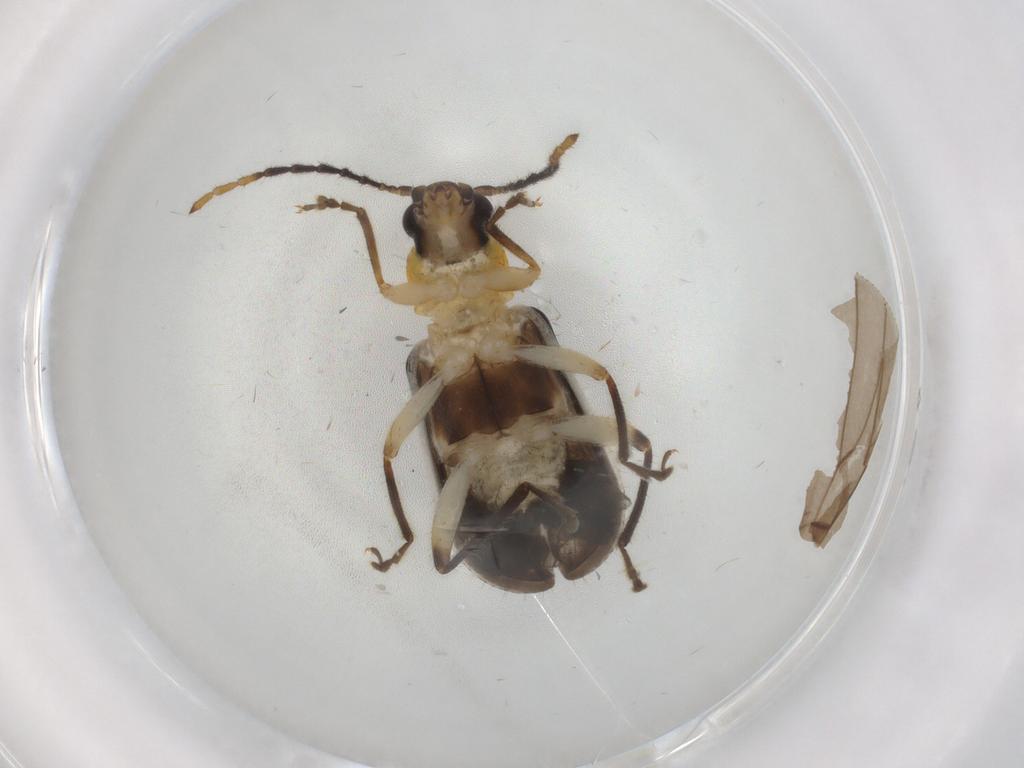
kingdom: Animalia
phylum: Arthropoda
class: Insecta
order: Coleoptera
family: Chrysomelidae
